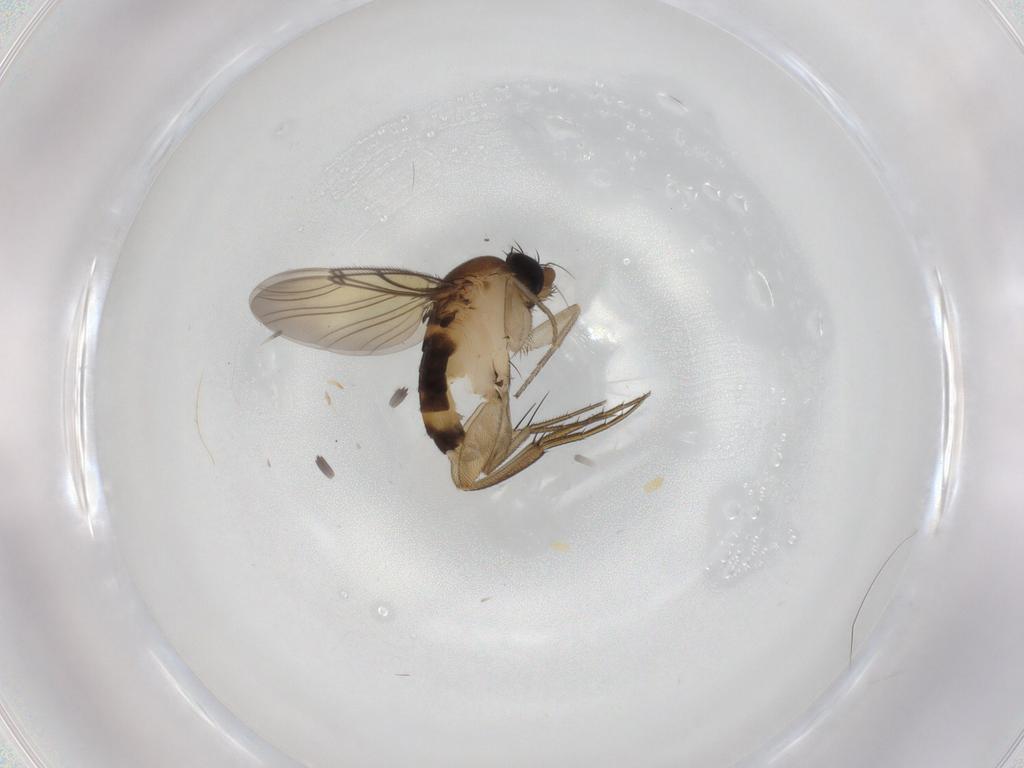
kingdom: Animalia
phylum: Arthropoda
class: Insecta
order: Diptera
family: Phoridae
